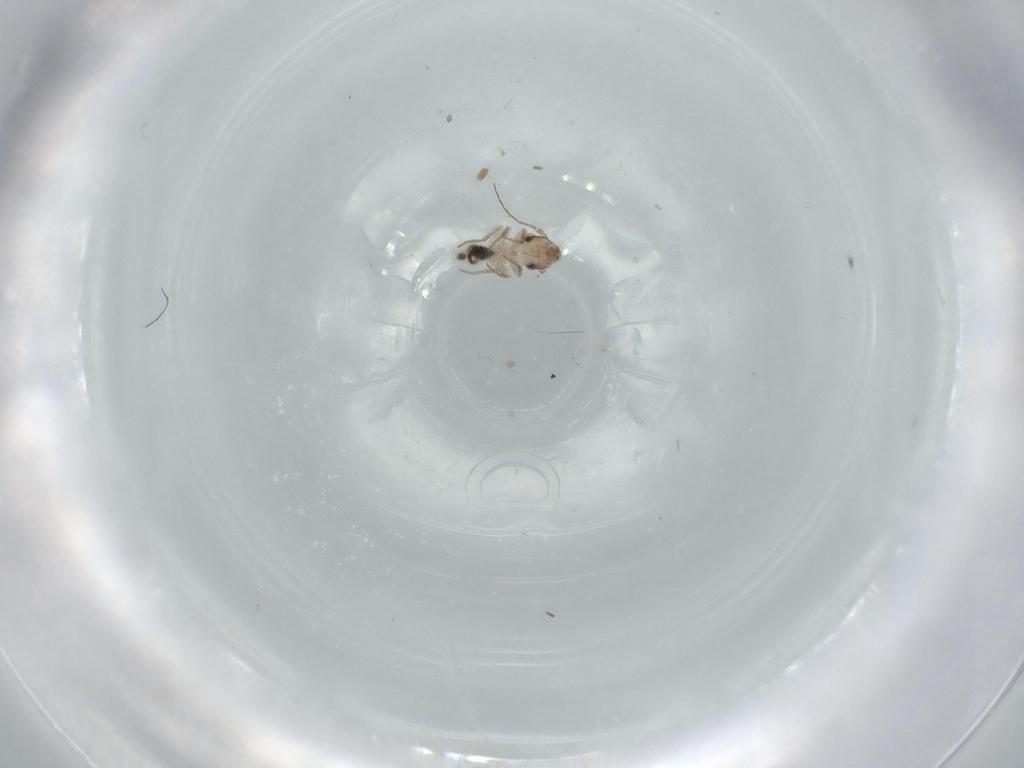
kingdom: Animalia
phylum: Arthropoda
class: Insecta
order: Psocodea
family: Lepidopsocidae
